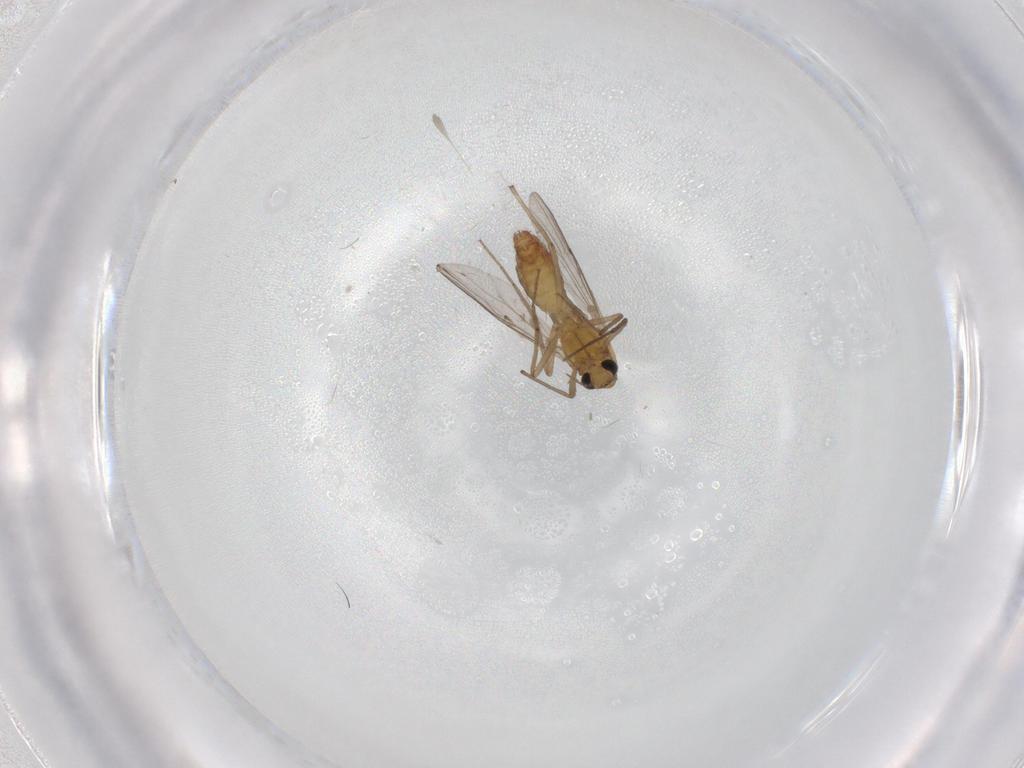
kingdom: Animalia
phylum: Arthropoda
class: Insecta
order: Diptera
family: Chironomidae
